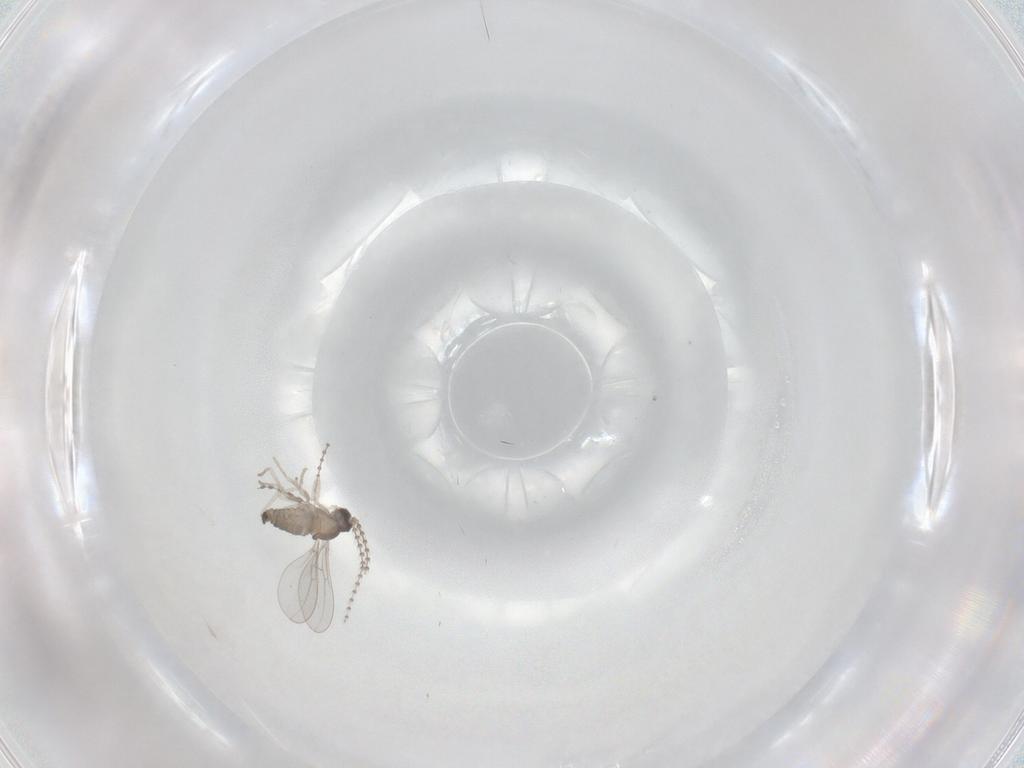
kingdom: Animalia
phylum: Arthropoda
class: Insecta
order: Diptera
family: Cecidomyiidae
